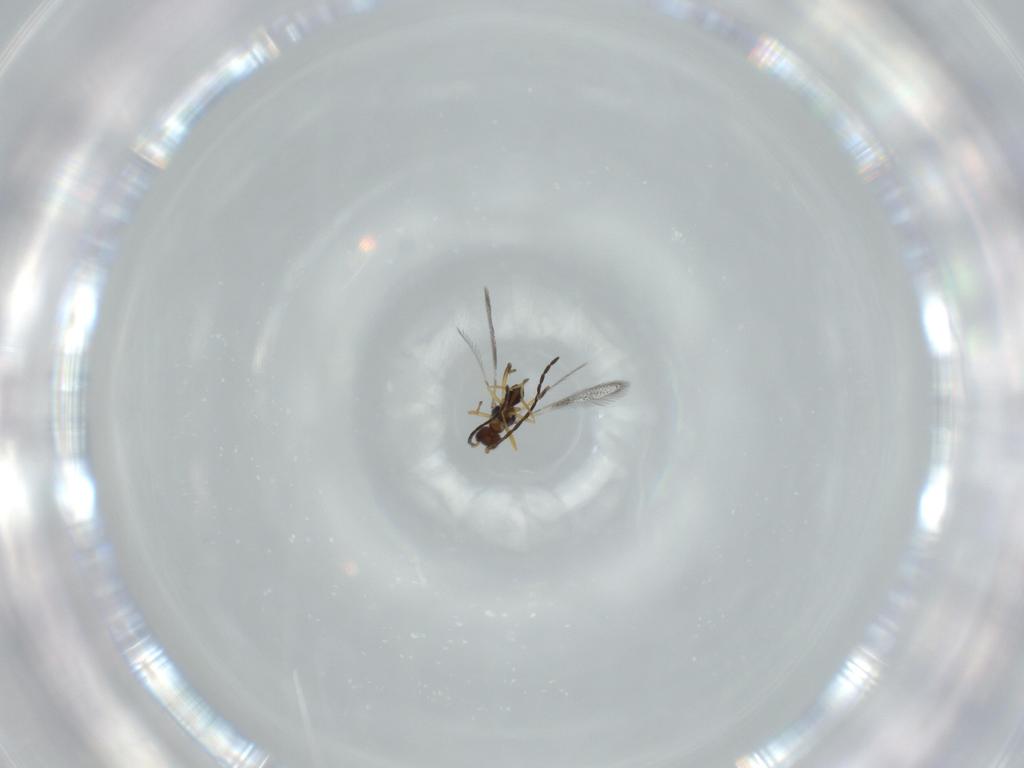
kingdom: Animalia
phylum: Arthropoda
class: Insecta
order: Hymenoptera
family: Mymaridae
